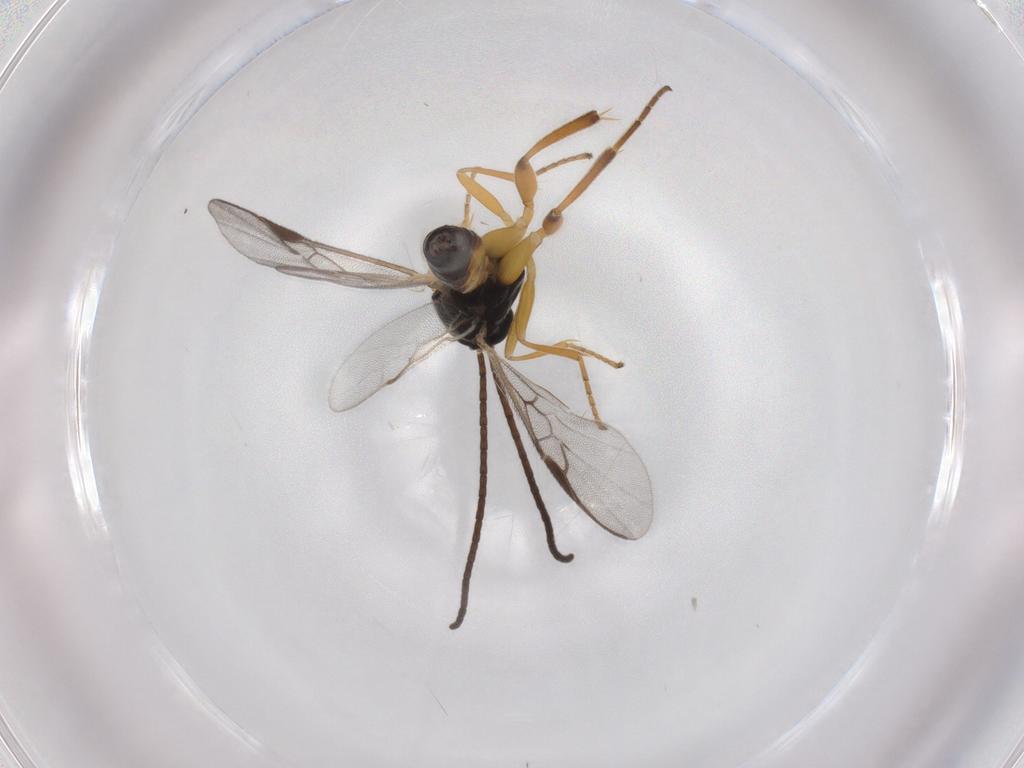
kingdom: Animalia
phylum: Arthropoda
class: Insecta
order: Hymenoptera
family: Braconidae
